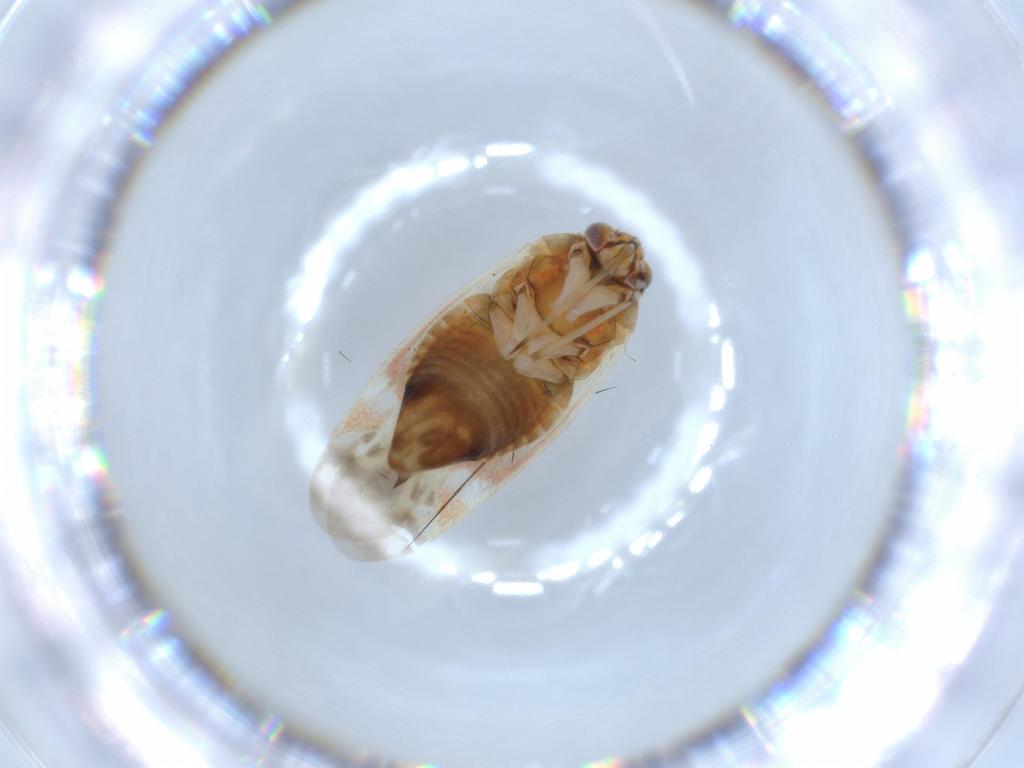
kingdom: Animalia
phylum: Arthropoda
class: Insecta
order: Hemiptera
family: Aphididae
